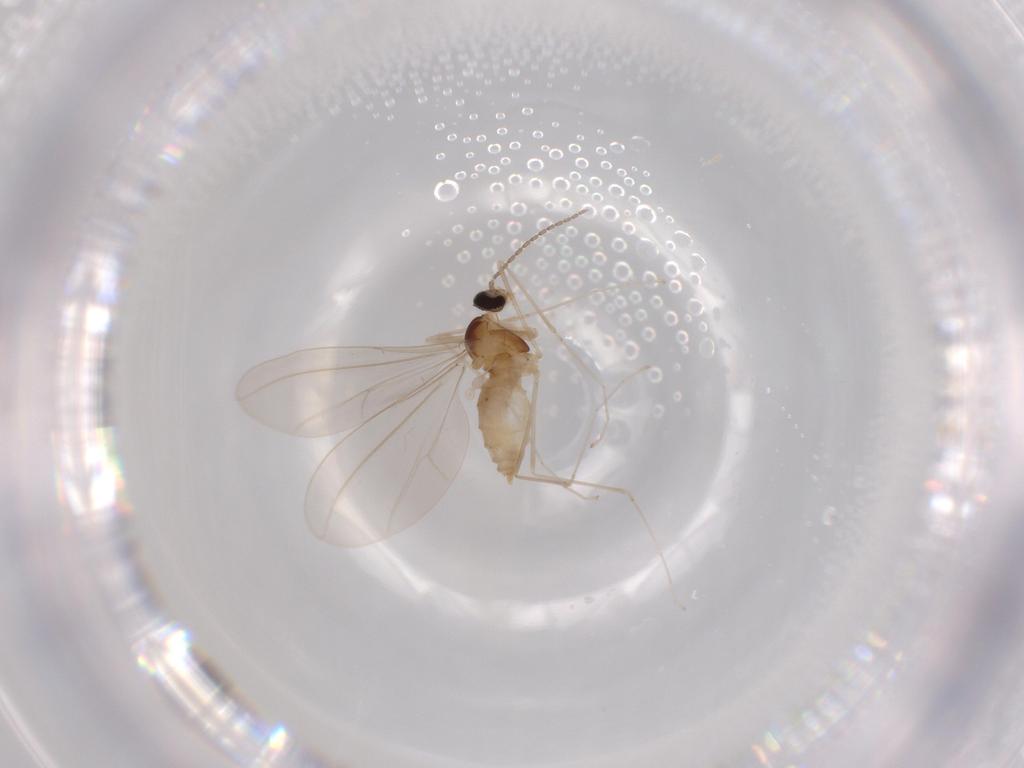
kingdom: Animalia
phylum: Arthropoda
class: Insecta
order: Diptera
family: Cecidomyiidae
